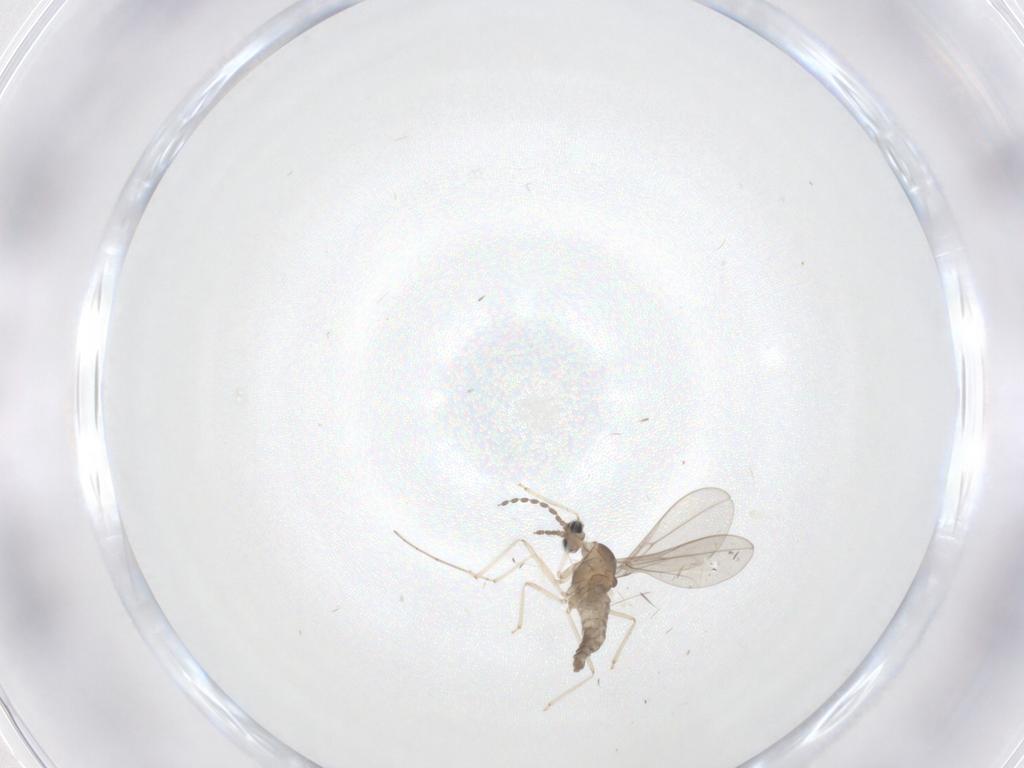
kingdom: Animalia
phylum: Arthropoda
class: Insecta
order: Diptera
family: Cecidomyiidae
